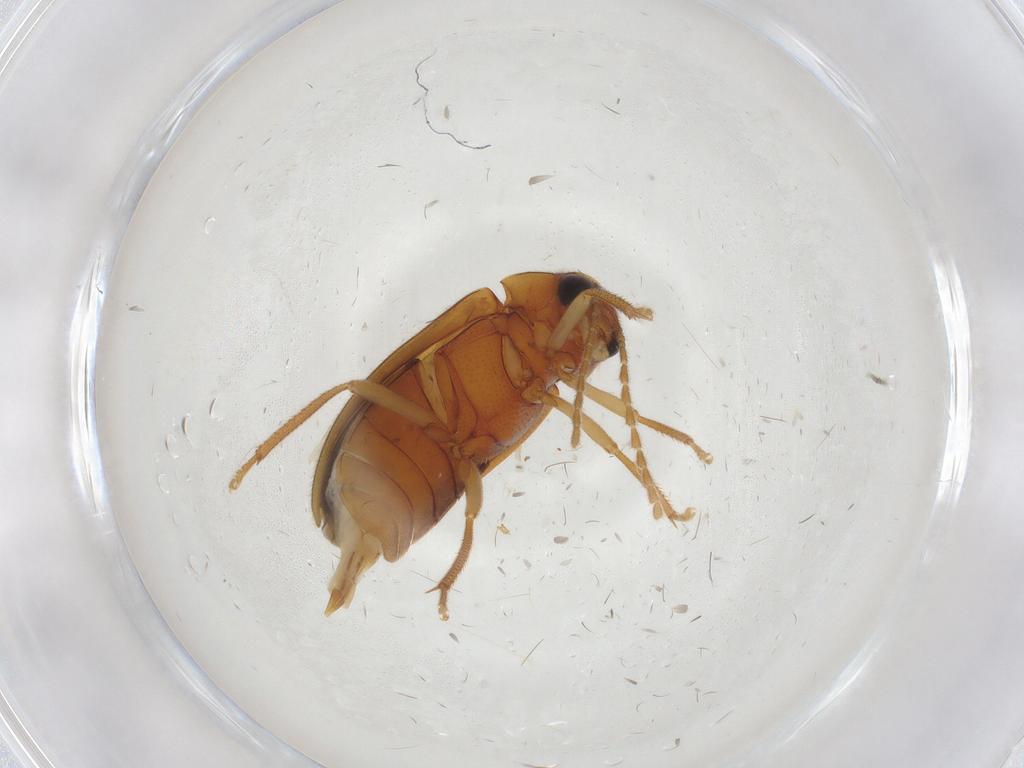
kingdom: Animalia
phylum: Arthropoda
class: Insecta
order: Coleoptera
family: Ptilodactylidae
